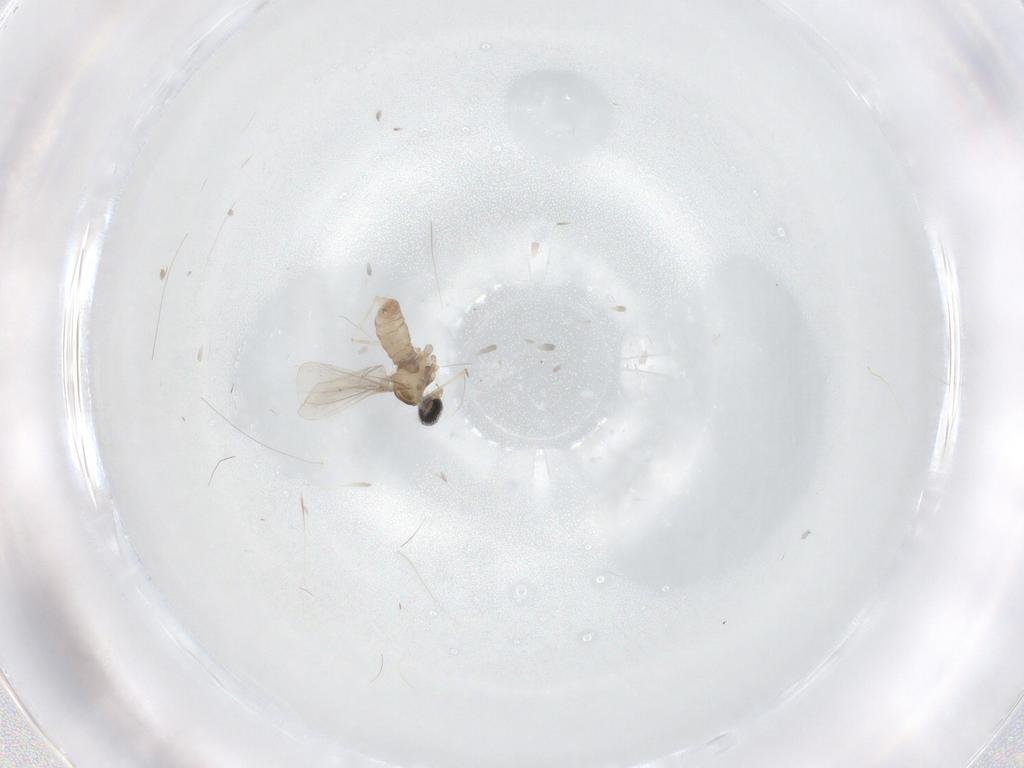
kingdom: Animalia
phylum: Arthropoda
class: Insecta
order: Diptera
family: Cecidomyiidae
